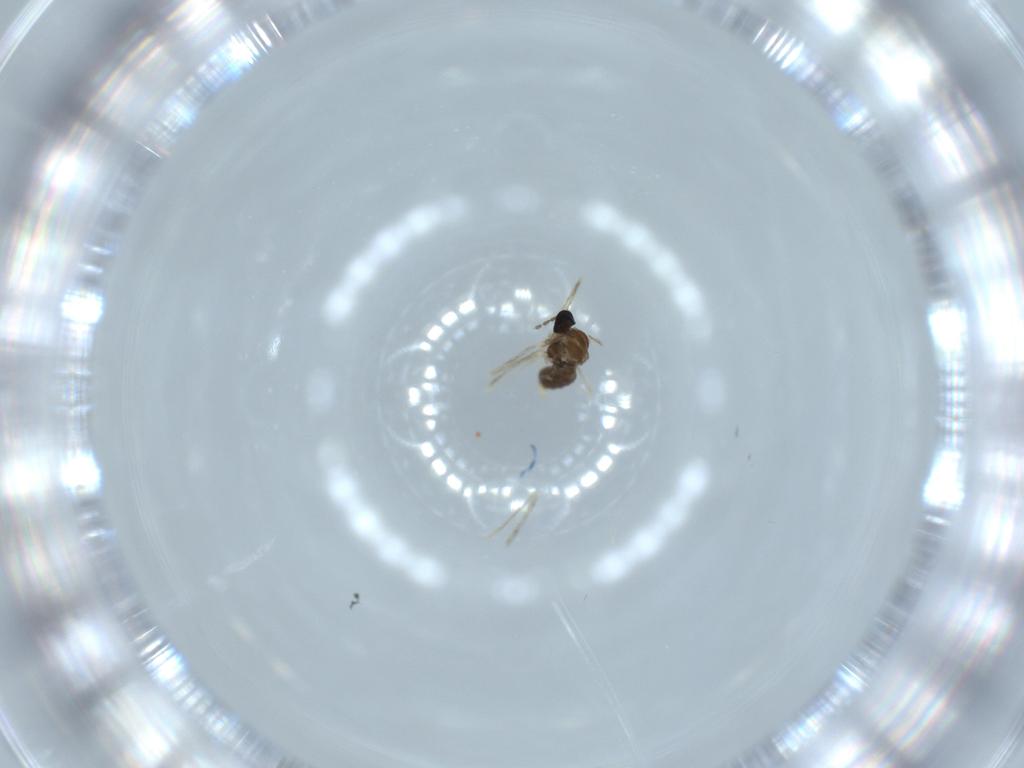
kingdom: Animalia
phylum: Arthropoda
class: Insecta
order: Diptera
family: Cecidomyiidae
